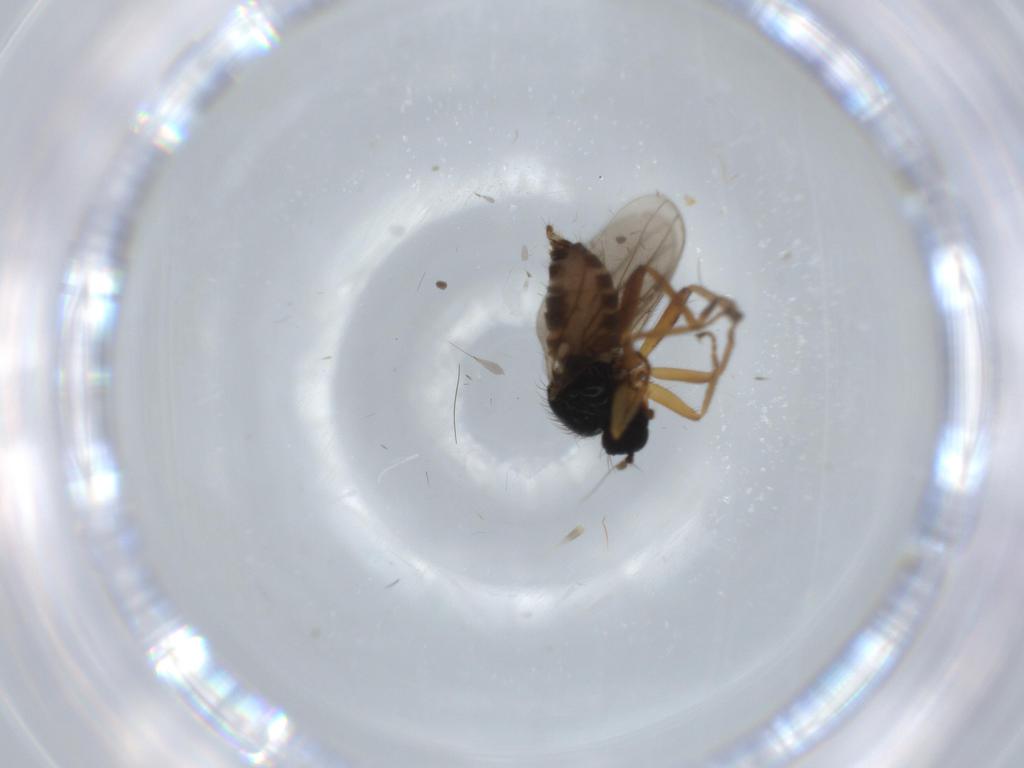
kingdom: Animalia
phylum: Arthropoda
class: Insecta
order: Diptera
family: Hybotidae
